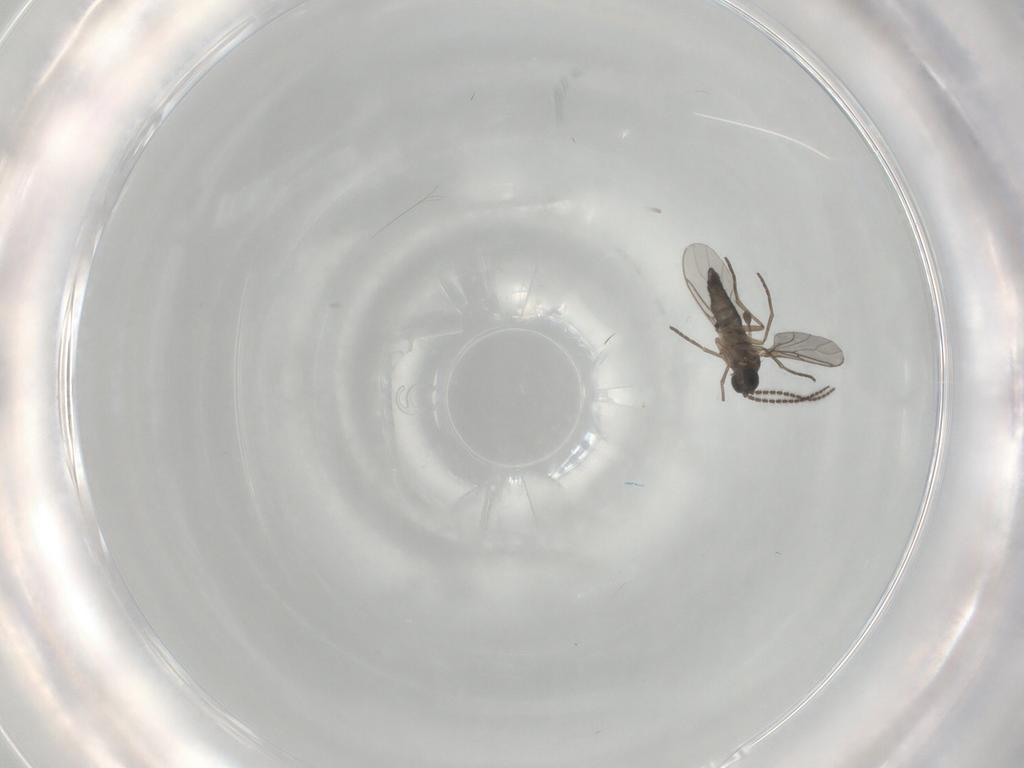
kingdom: Animalia
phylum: Arthropoda
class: Insecta
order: Diptera
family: Sciaridae
